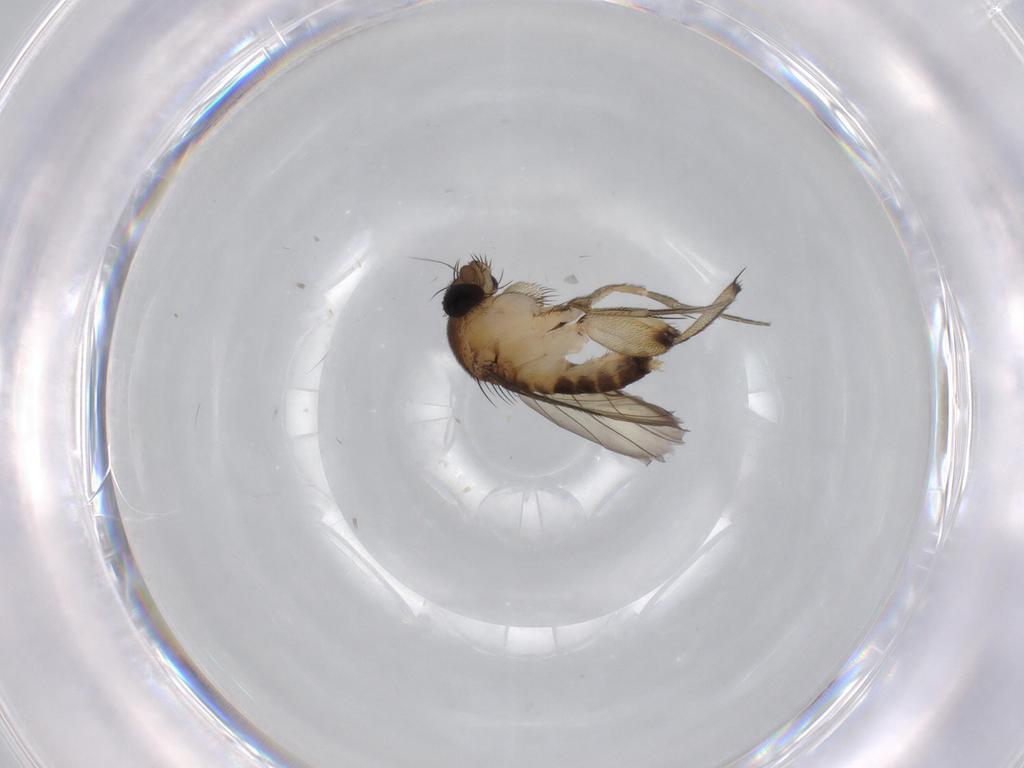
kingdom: Animalia
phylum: Arthropoda
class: Insecta
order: Diptera
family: Phoridae
